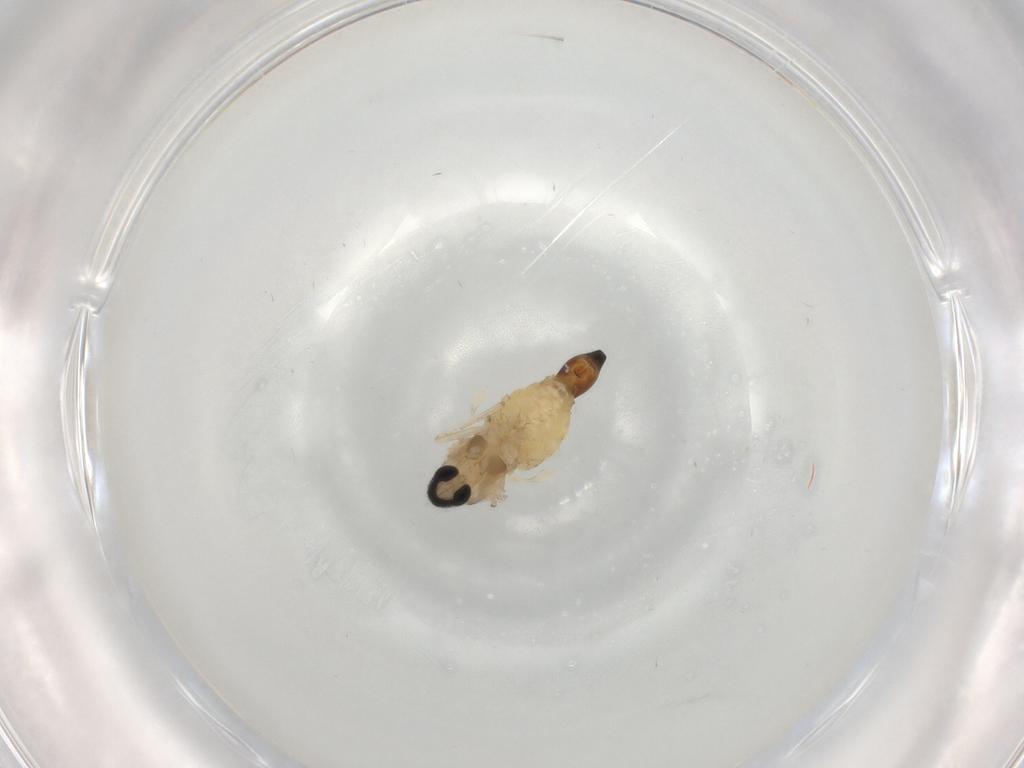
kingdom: Animalia
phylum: Arthropoda
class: Insecta
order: Diptera
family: Cecidomyiidae
